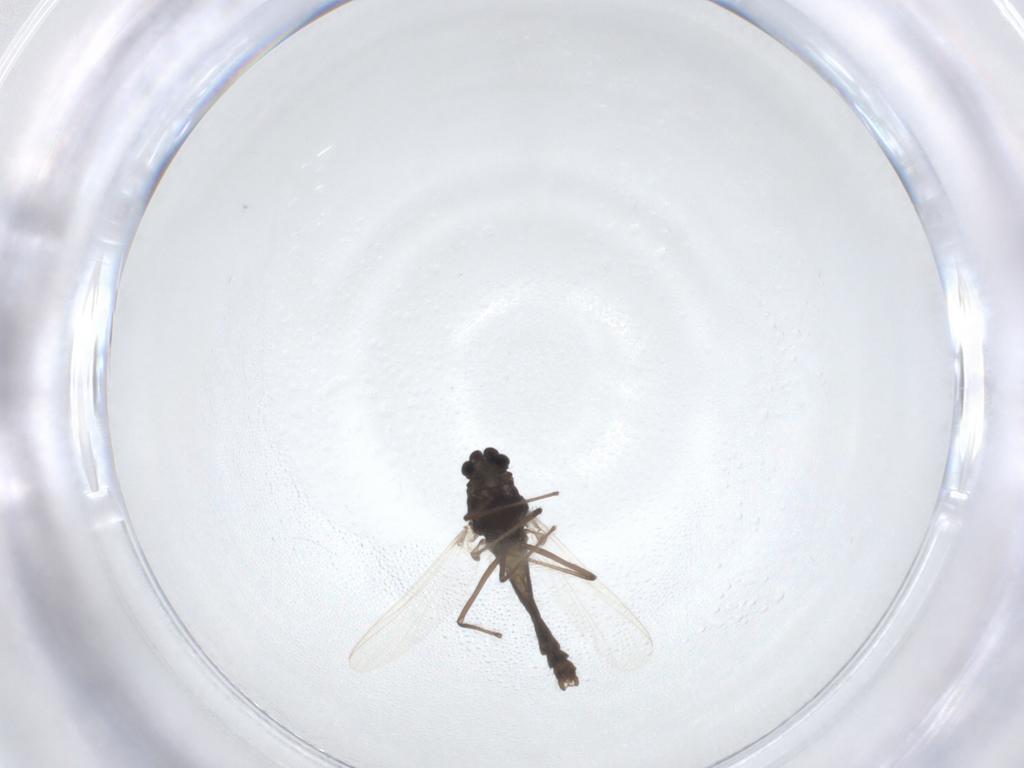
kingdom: Animalia
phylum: Arthropoda
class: Insecta
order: Diptera
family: Chironomidae
